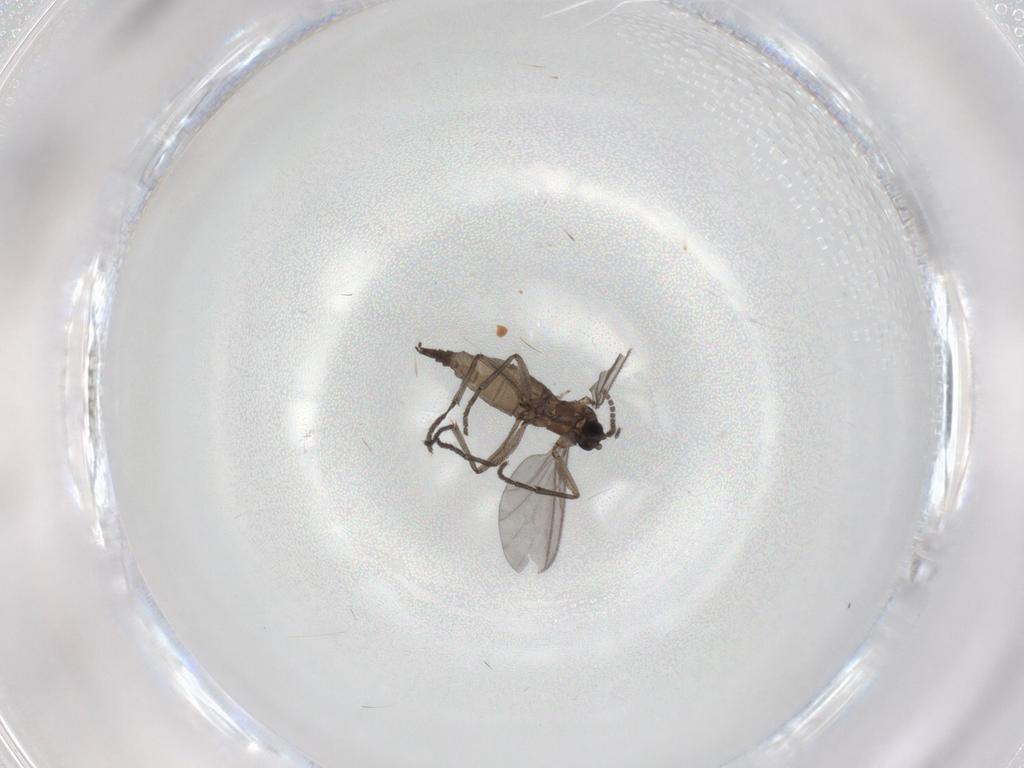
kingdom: Animalia
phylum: Arthropoda
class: Insecta
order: Diptera
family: Sciaridae
